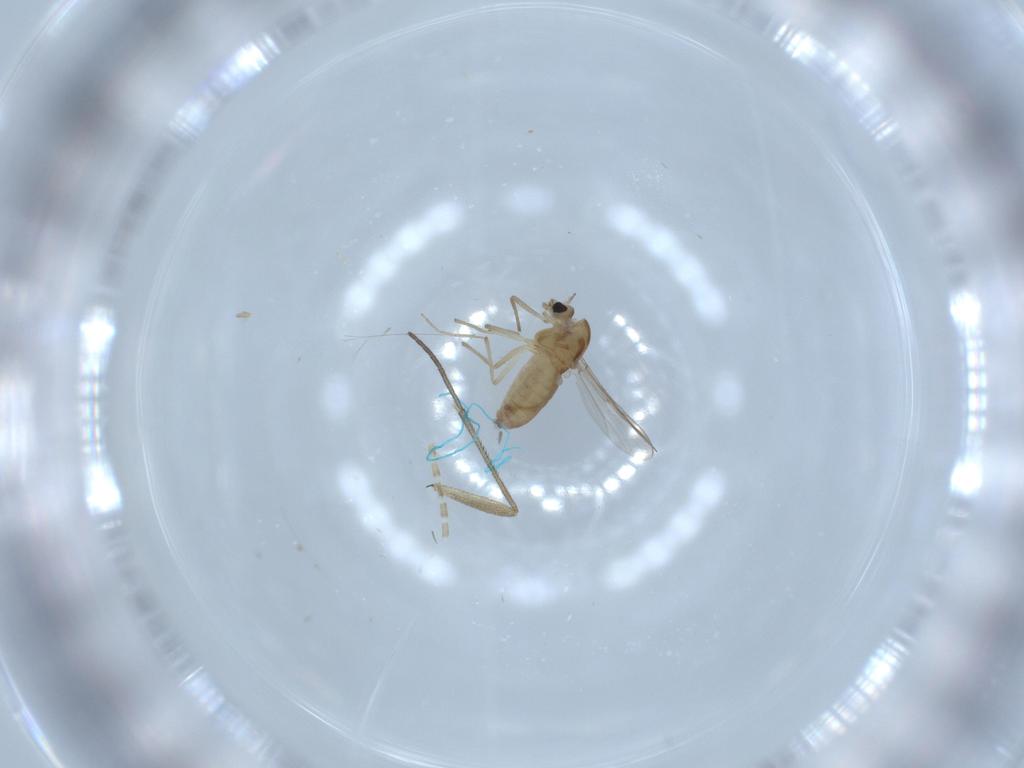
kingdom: Animalia
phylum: Arthropoda
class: Insecta
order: Diptera
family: Chironomidae
